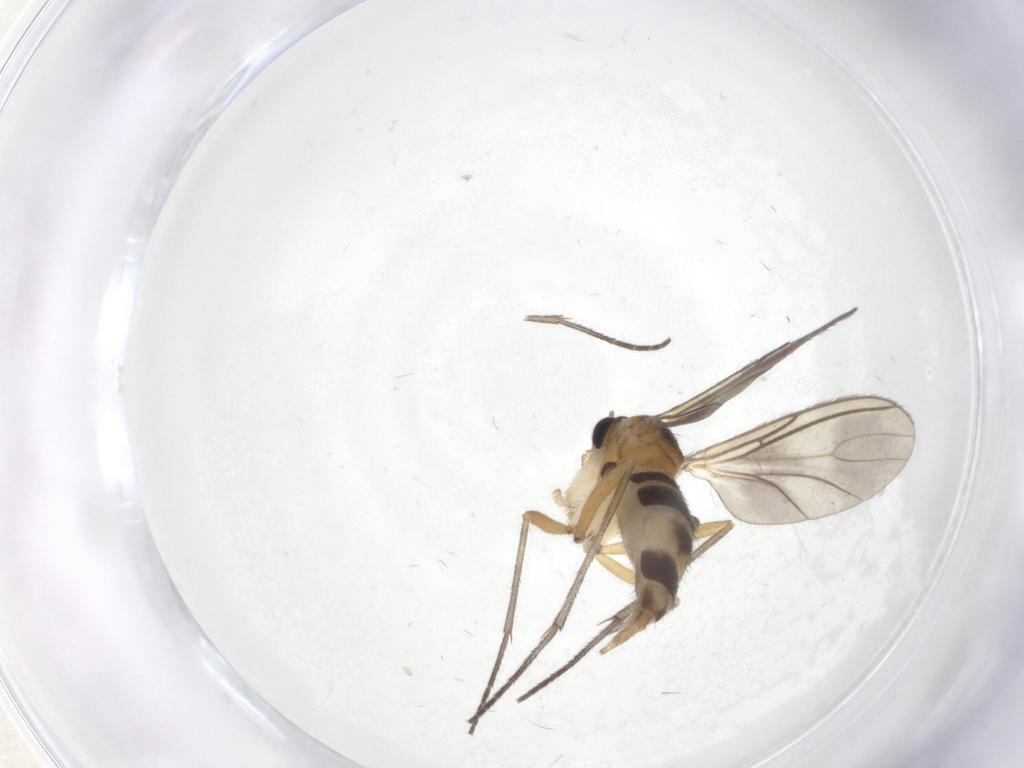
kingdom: Animalia
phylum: Arthropoda
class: Insecta
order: Diptera
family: Sciaridae
